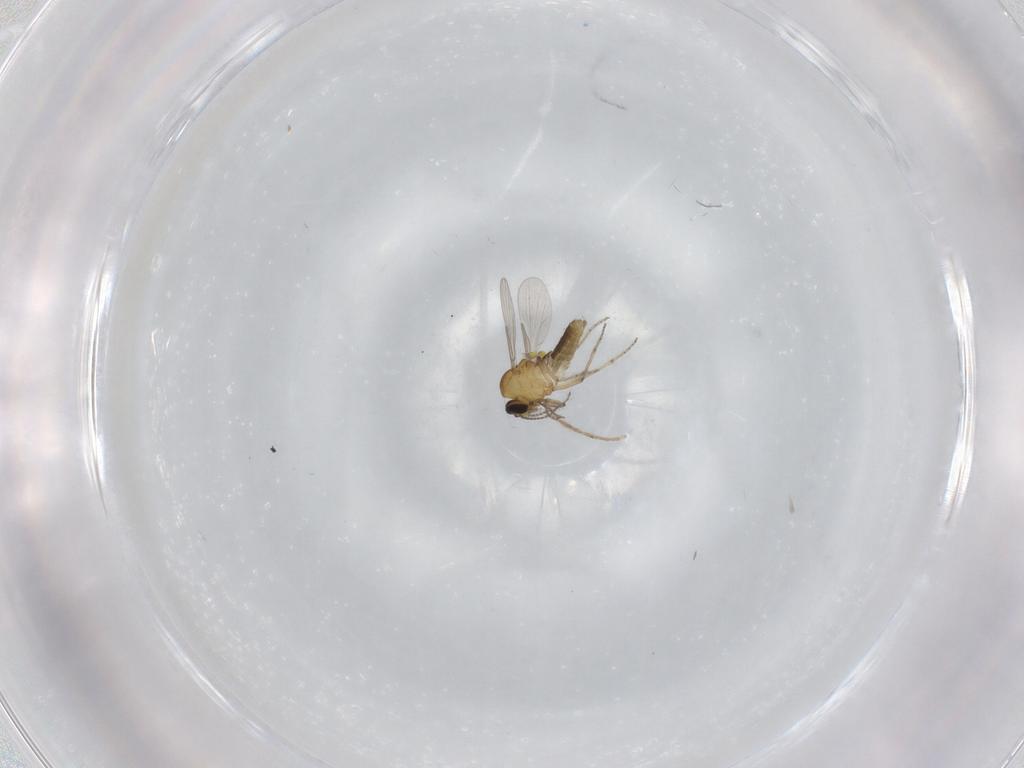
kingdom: Animalia
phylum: Arthropoda
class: Insecta
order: Diptera
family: Ceratopogonidae
